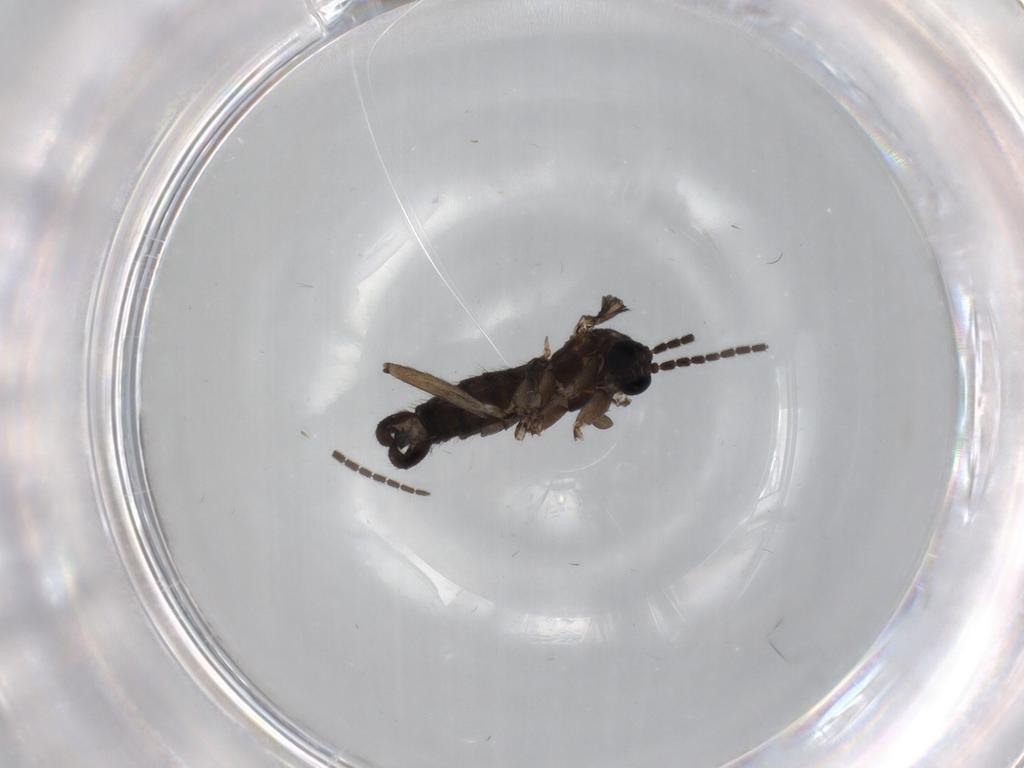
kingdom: Animalia
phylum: Arthropoda
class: Insecta
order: Diptera
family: Sciaridae
